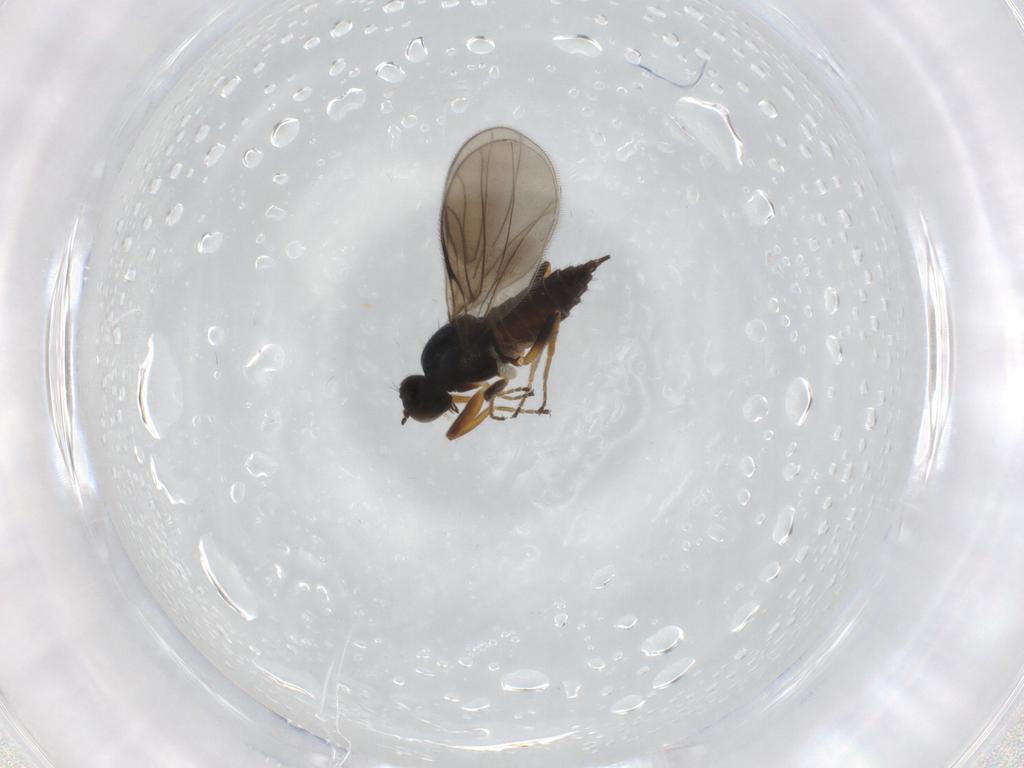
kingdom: Animalia
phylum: Arthropoda
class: Insecta
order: Diptera
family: Hybotidae
